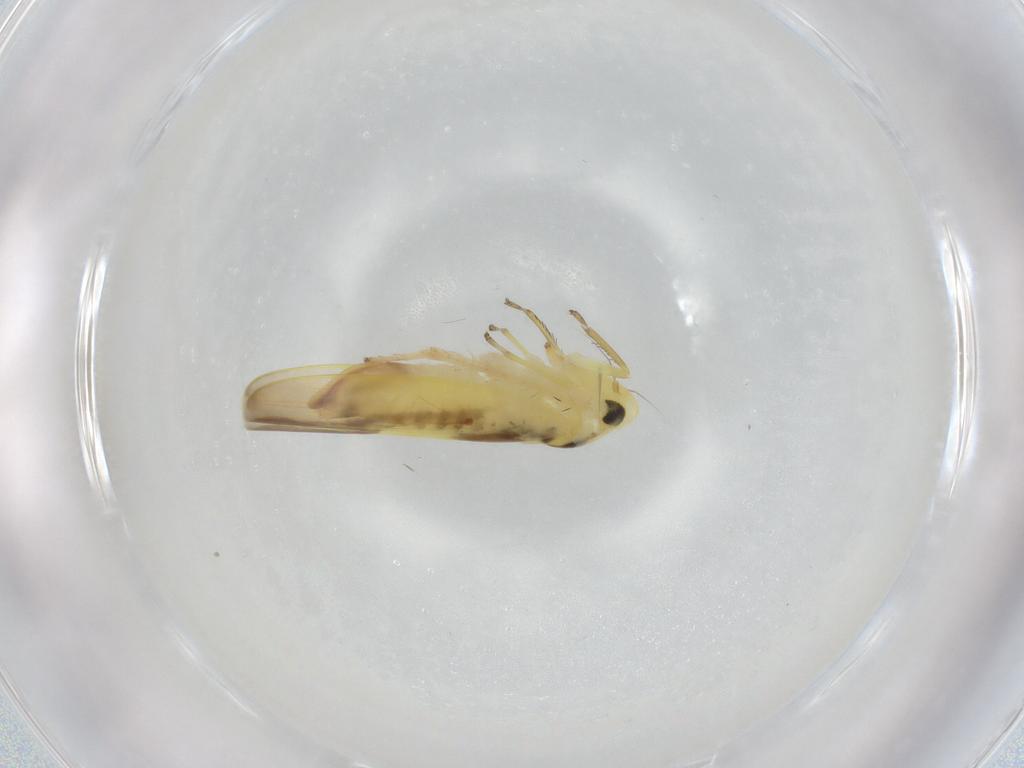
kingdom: Animalia
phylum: Arthropoda
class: Insecta
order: Hemiptera
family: Cicadellidae
